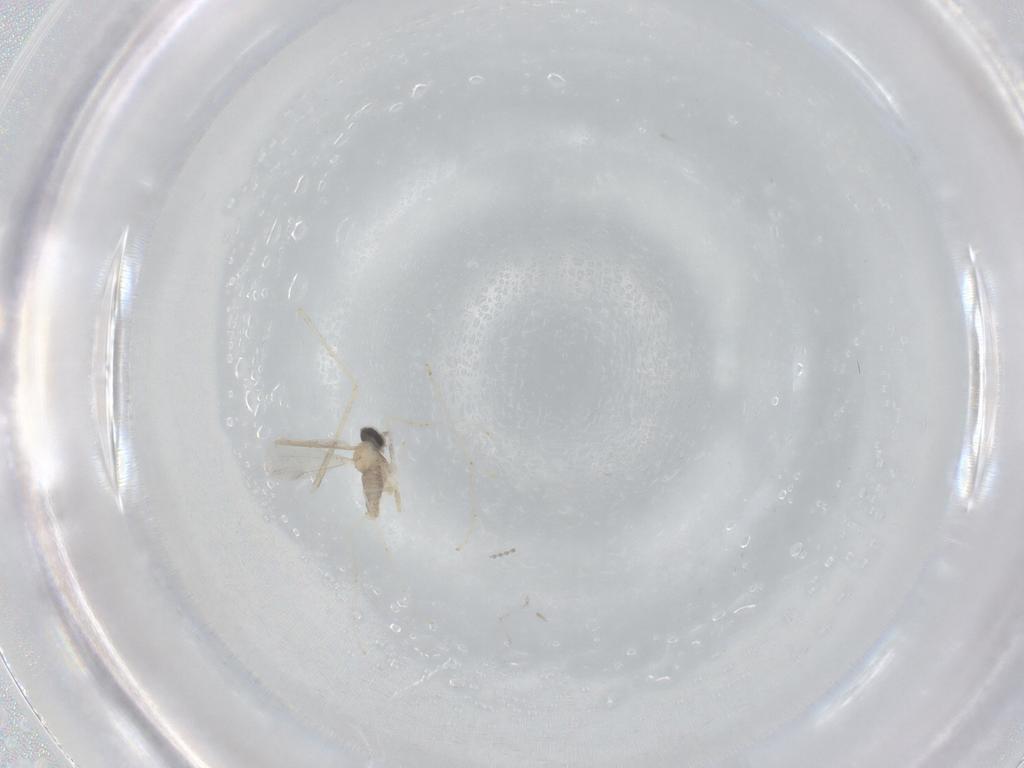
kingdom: Animalia
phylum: Arthropoda
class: Insecta
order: Diptera
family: Cecidomyiidae
